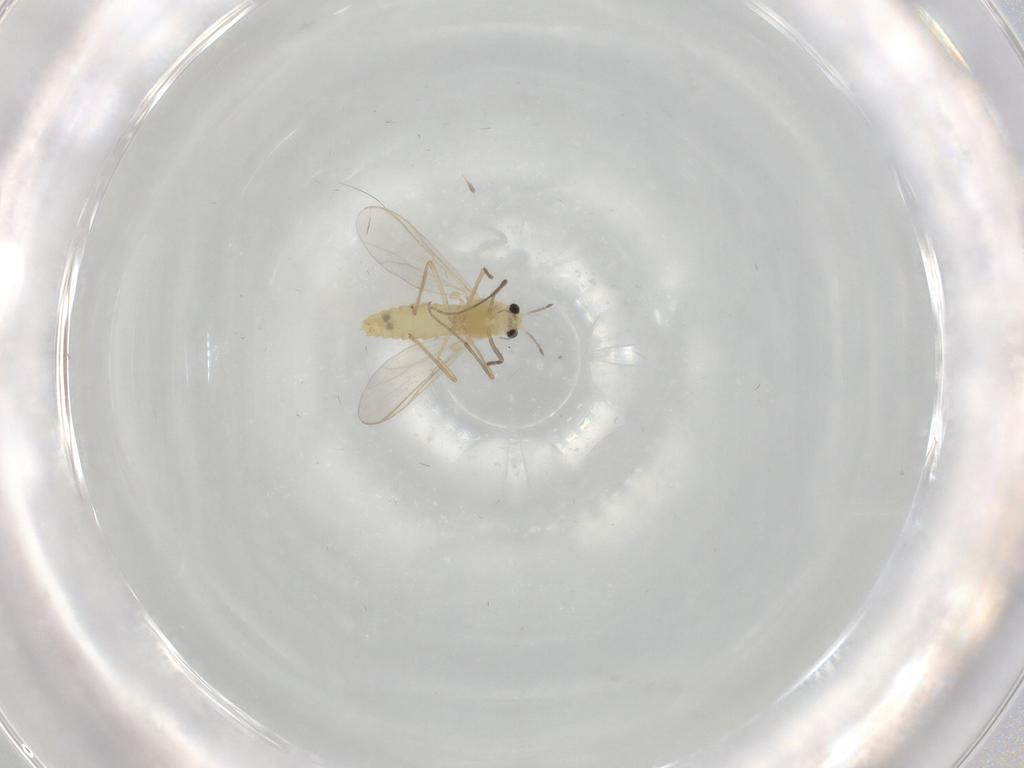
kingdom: Animalia
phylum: Arthropoda
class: Insecta
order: Diptera
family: Chironomidae
